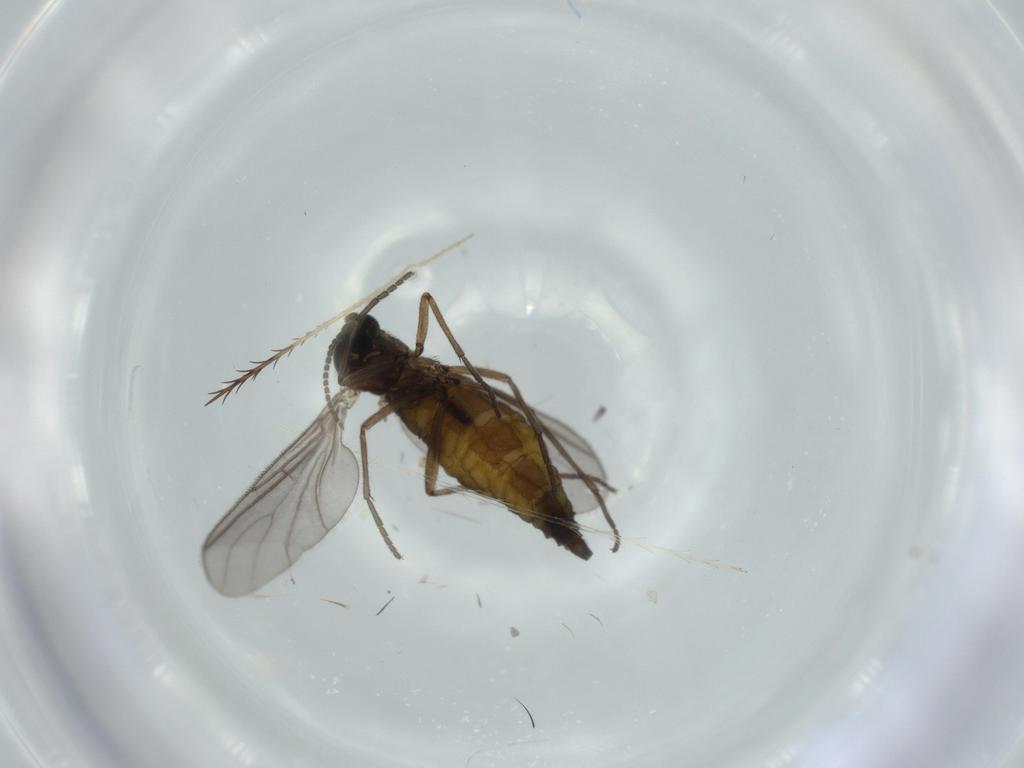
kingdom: Animalia
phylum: Arthropoda
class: Insecta
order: Diptera
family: Sciaridae
